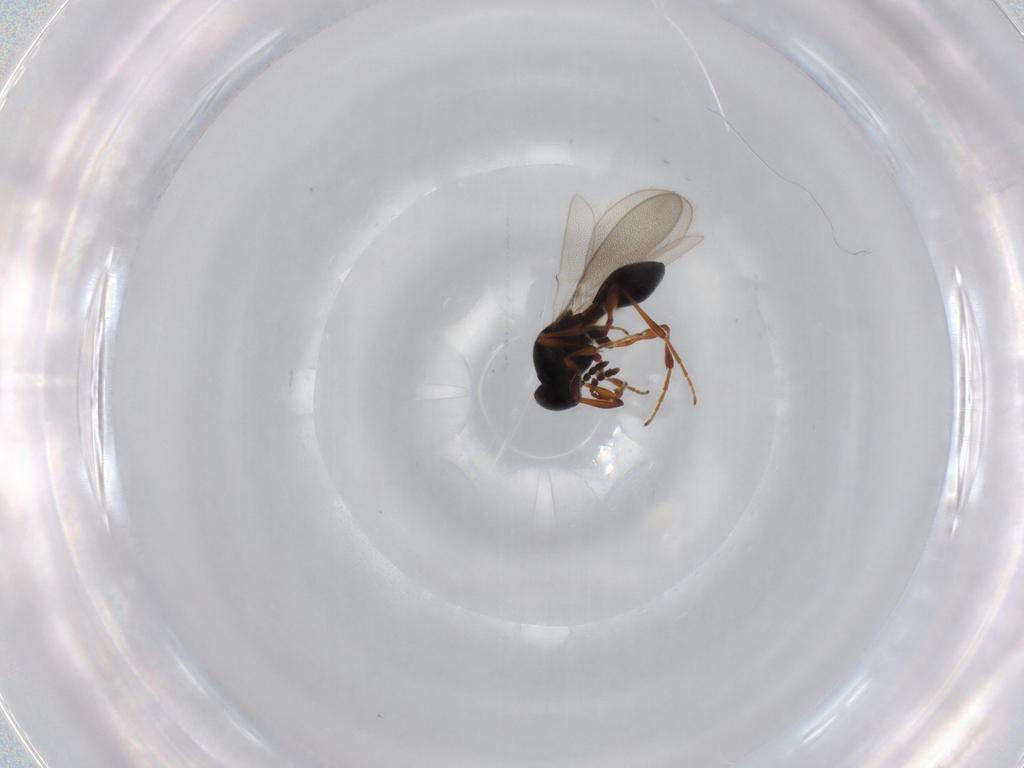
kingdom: Animalia
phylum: Arthropoda
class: Insecta
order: Hymenoptera
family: Platygastridae
